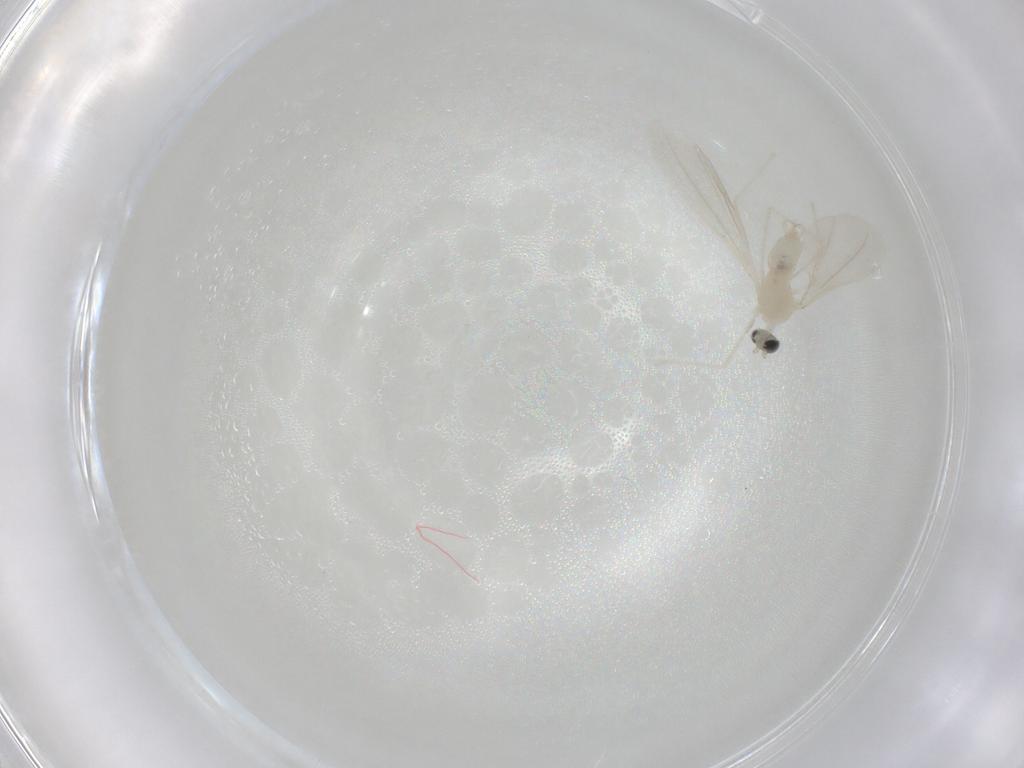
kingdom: Animalia
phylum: Arthropoda
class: Insecta
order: Diptera
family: Cecidomyiidae
